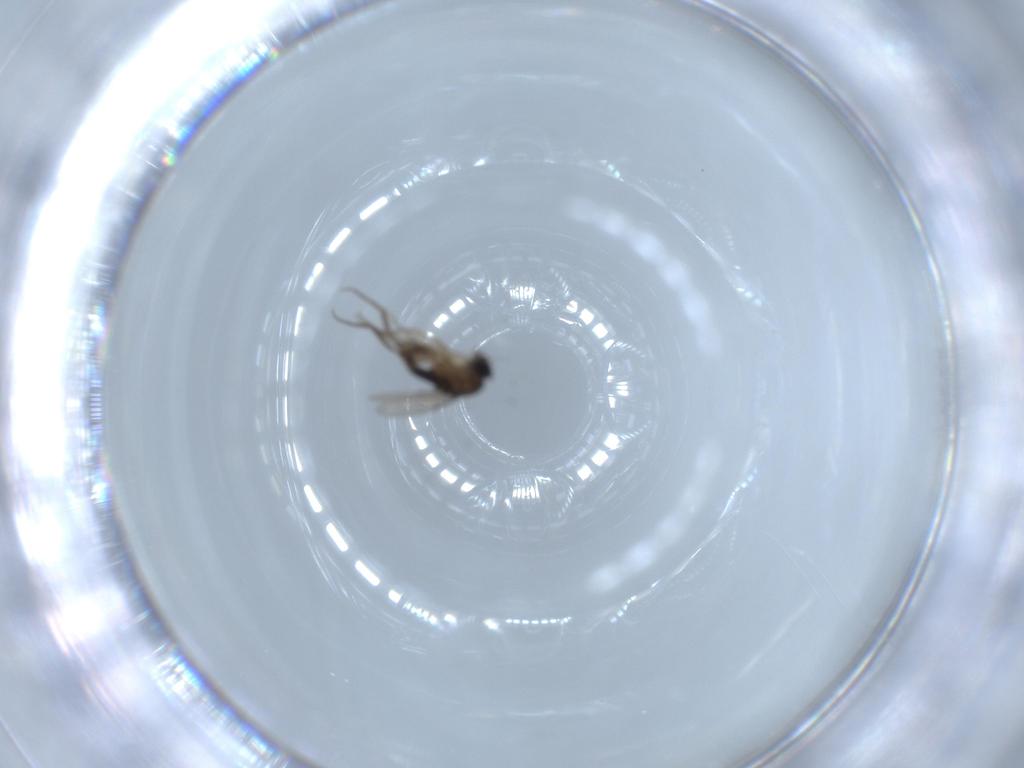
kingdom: Animalia
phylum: Arthropoda
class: Insecta
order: Diptera
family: Phoridae
